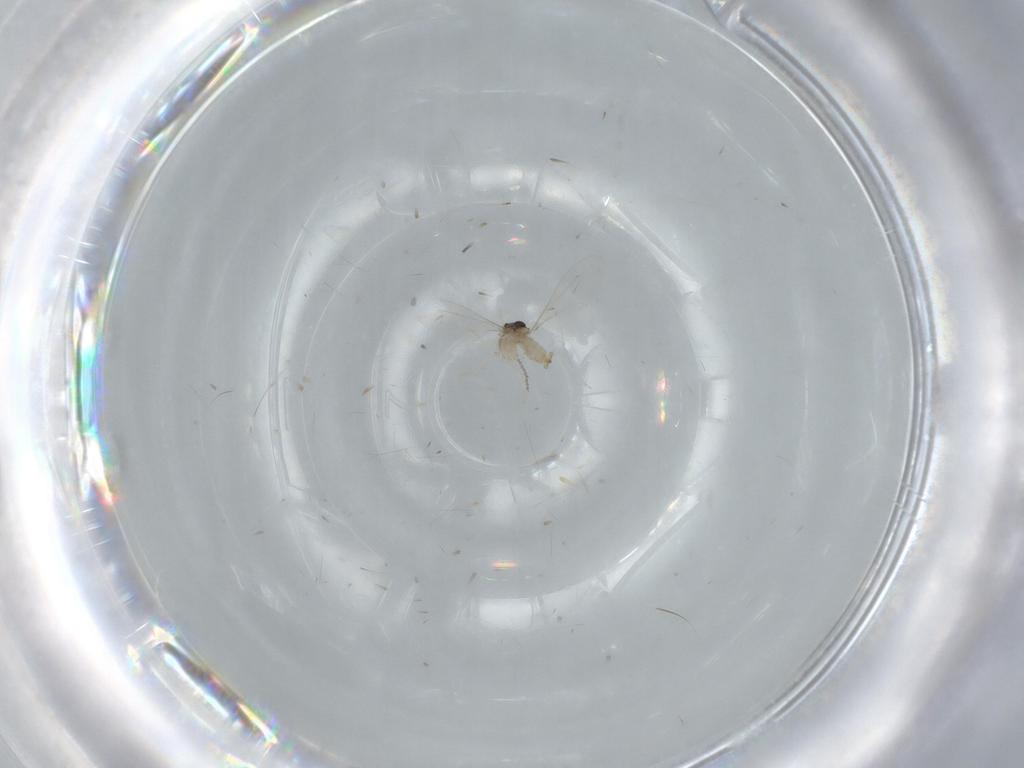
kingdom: Animalia
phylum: Arthropoda
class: Insecta
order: Diptera
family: Cecidomyiidae
